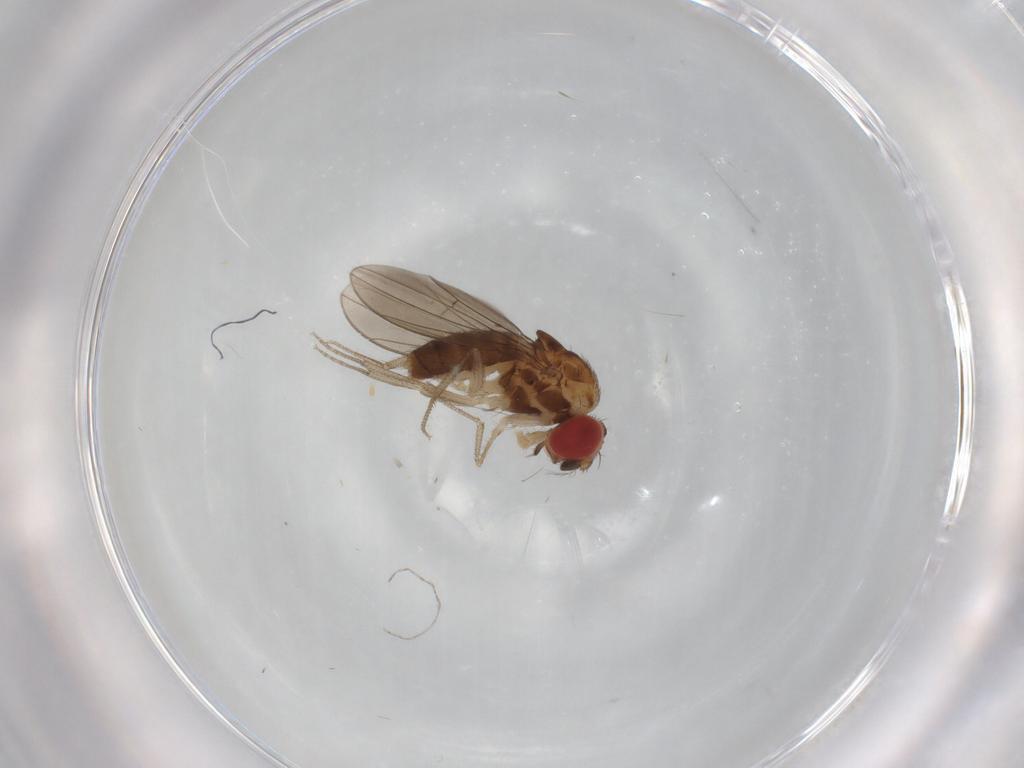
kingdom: Animalia
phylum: Arthropoda
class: Insecta
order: Diptera
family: Drosophilidae
